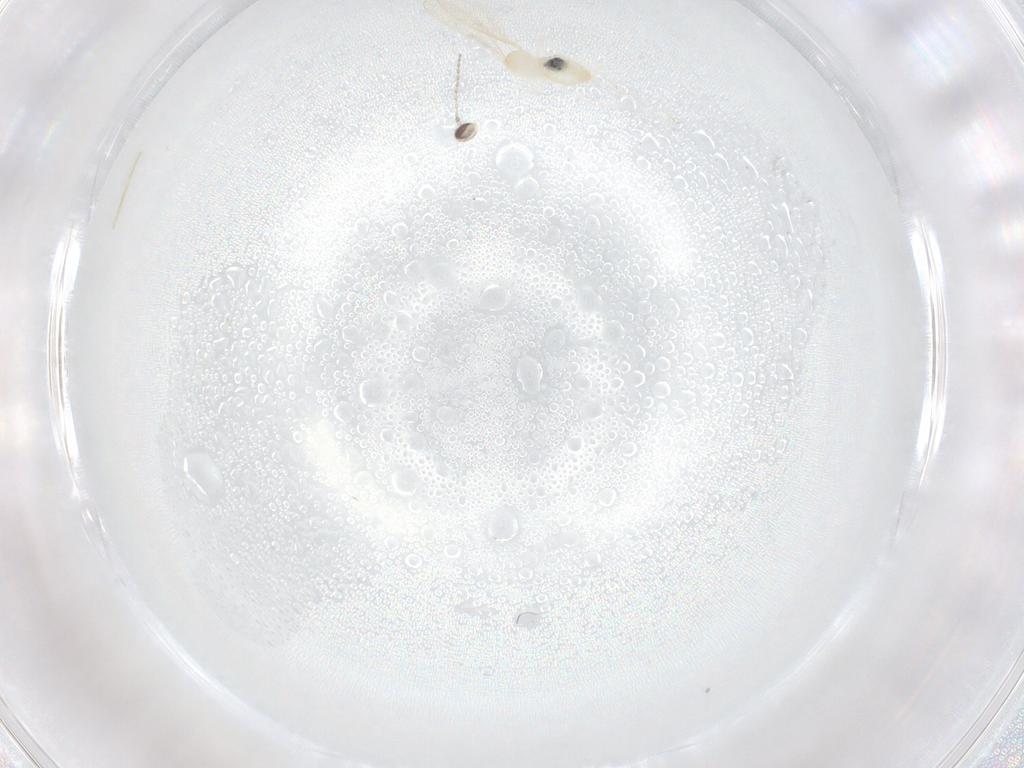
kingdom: Animalia
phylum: Arthropoda
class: Insecta
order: Diptera
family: Cecidomyiidae
